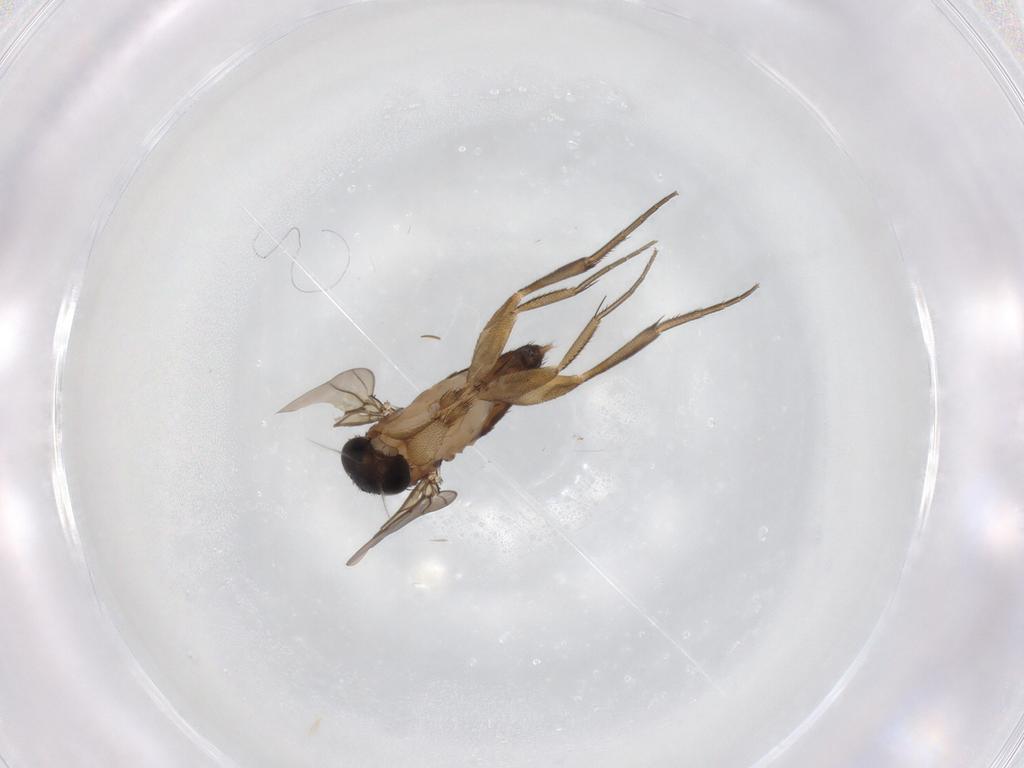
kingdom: Animalia
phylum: Arthropoda
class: Insecta
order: Diptera
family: Phoridae
